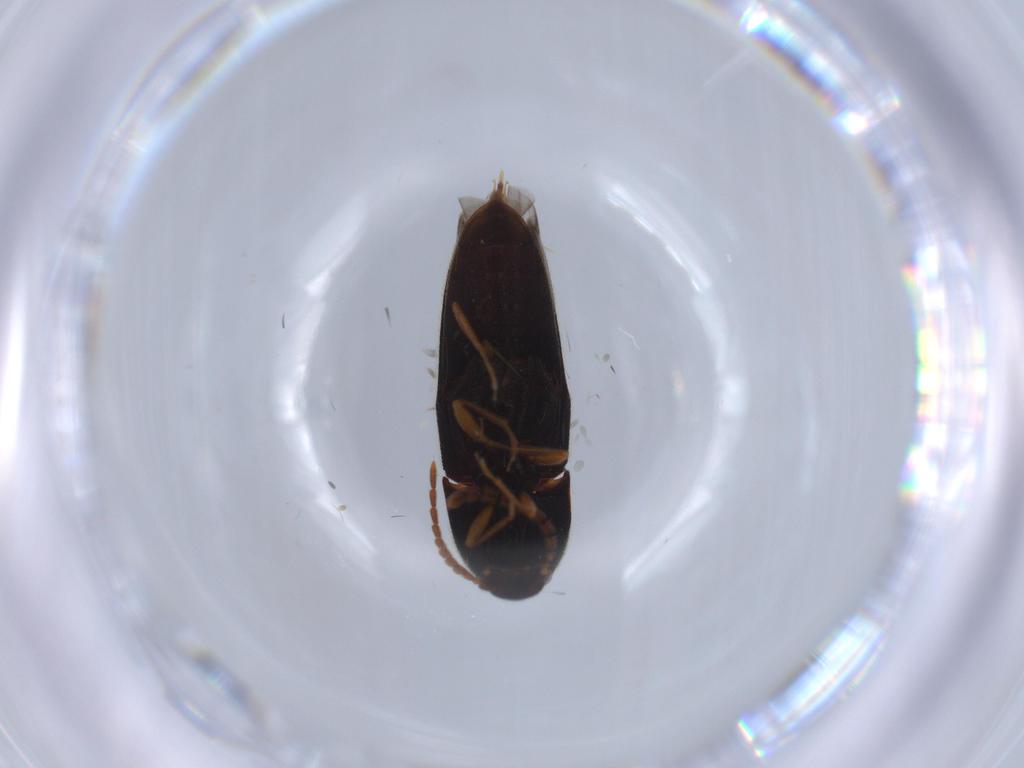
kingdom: Animalia
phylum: Arthropoda
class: Insecta
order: Coleoptera
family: Elateridae
